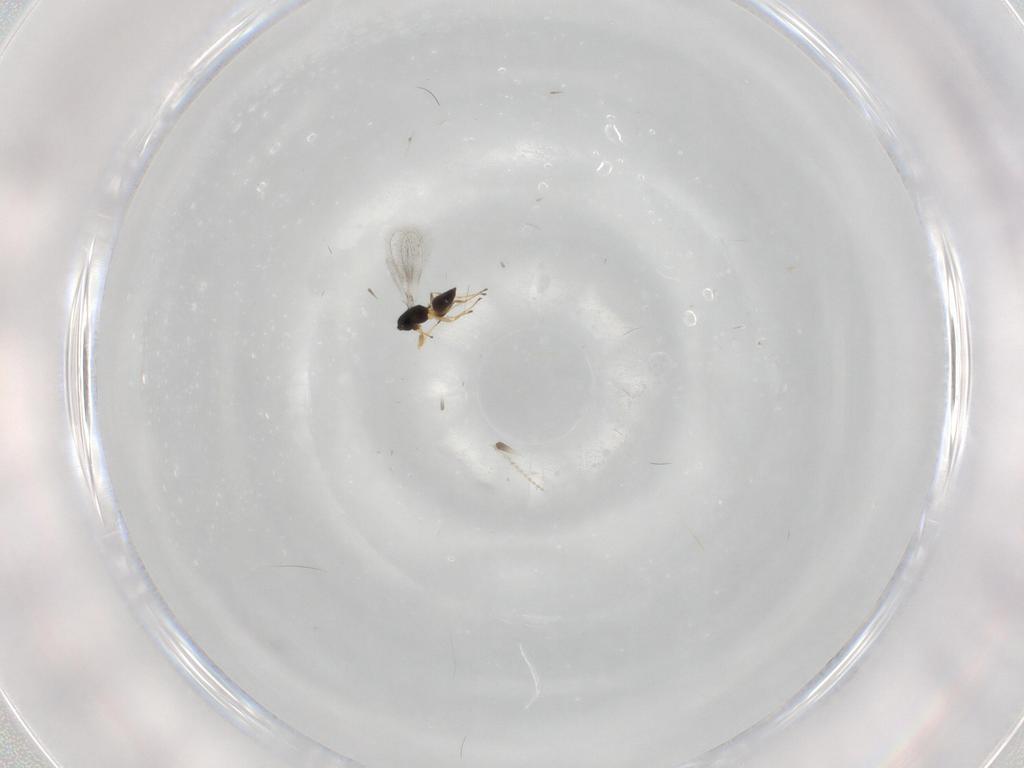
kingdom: Animalia
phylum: Arthropoda
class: Insecta
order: Hymenoptera
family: Mymaridae
